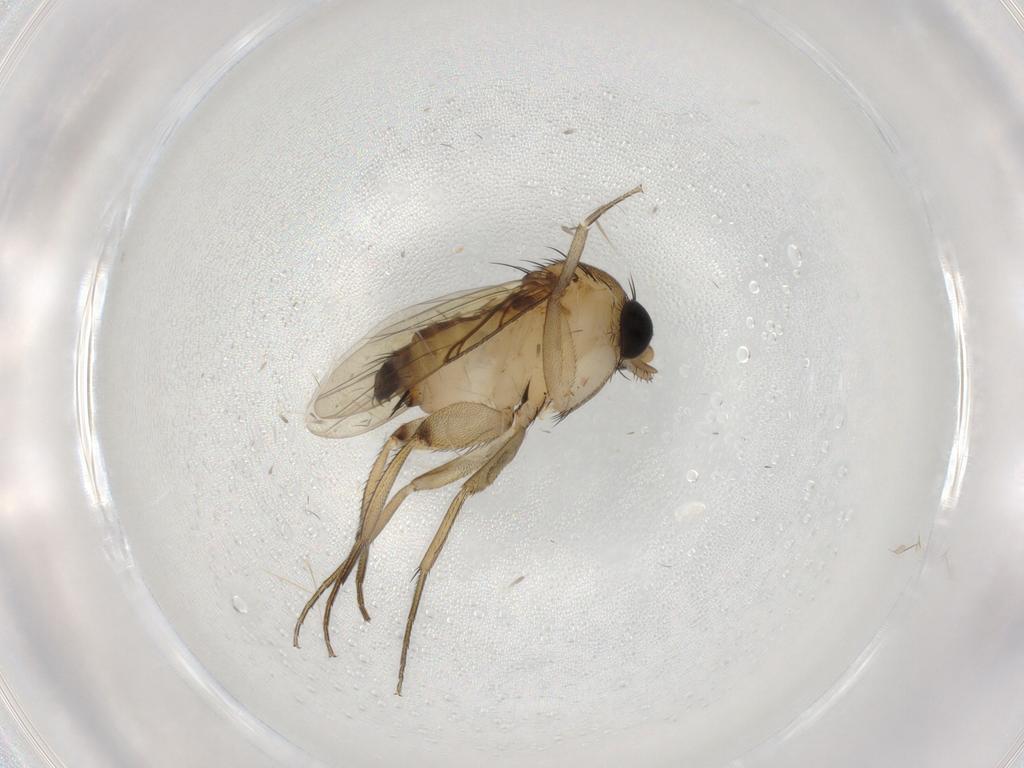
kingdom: Animalia
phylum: Arthropoda
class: Insecta
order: Diptera
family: Phoridae
